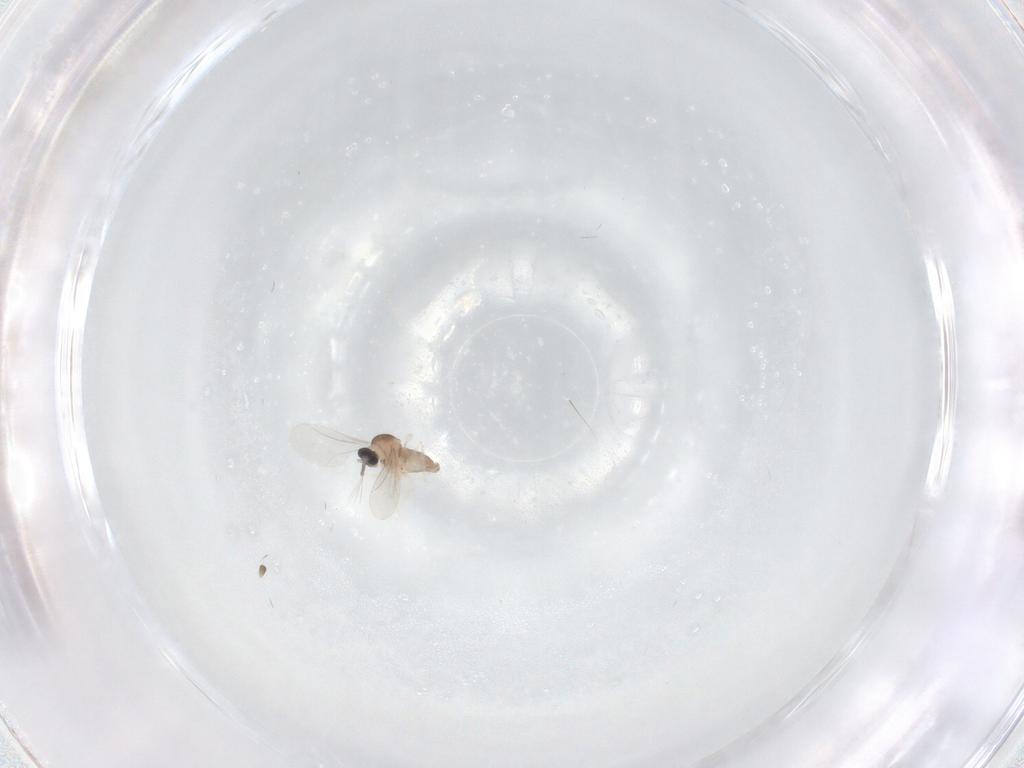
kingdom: Animalia
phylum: Arthropoda
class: Insecta
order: Diptera
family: Cecidomyiidae
